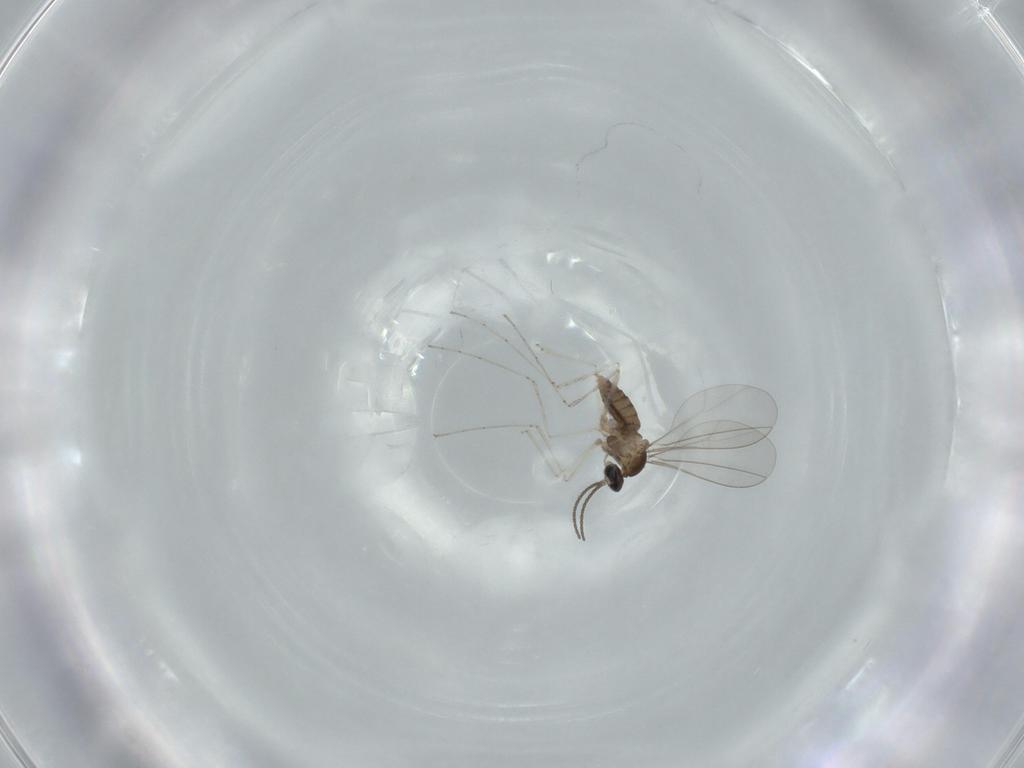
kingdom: Animalia
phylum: Arthropoda
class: Insecta
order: Diptera
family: Cecidomyiidae
